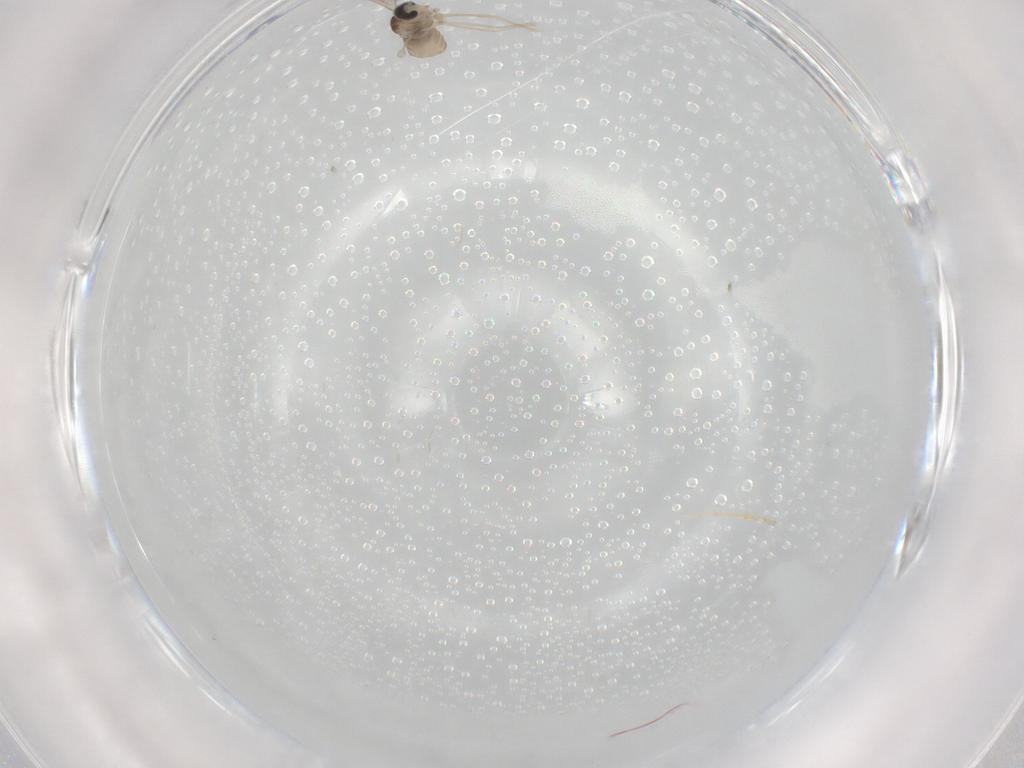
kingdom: Animalia
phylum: Arthropoda
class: Insecta
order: Diptera
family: Cecidomyiidae
